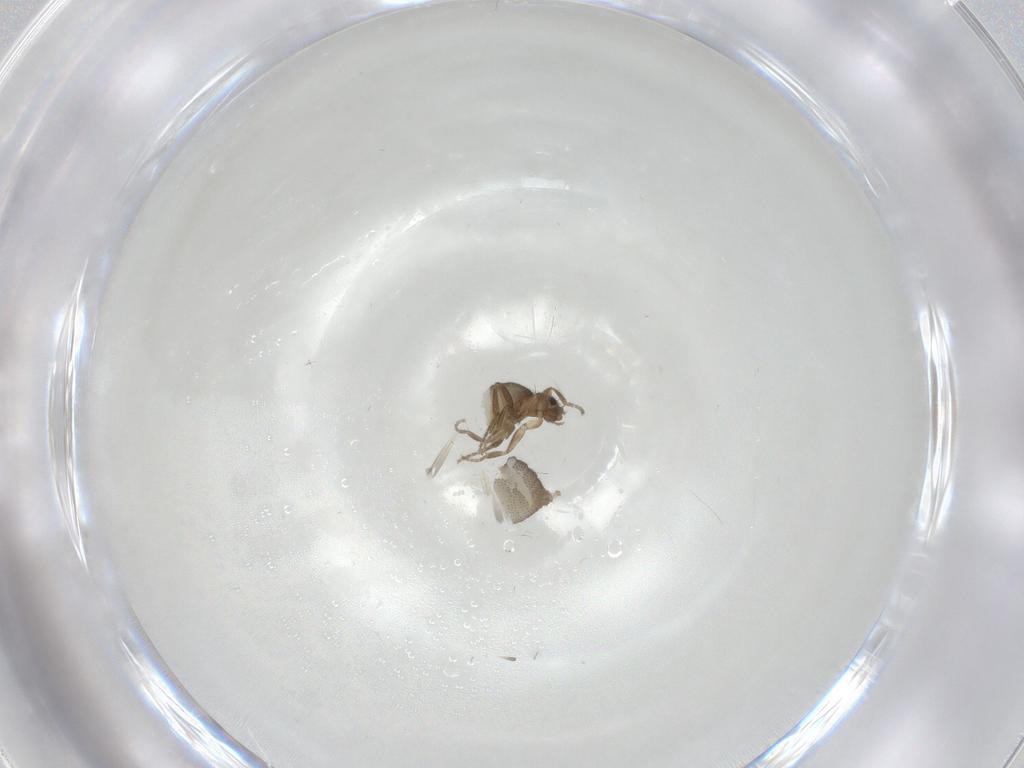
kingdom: Animalia
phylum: Arthropoda
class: Insecta
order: Diptera
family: Phoridae
